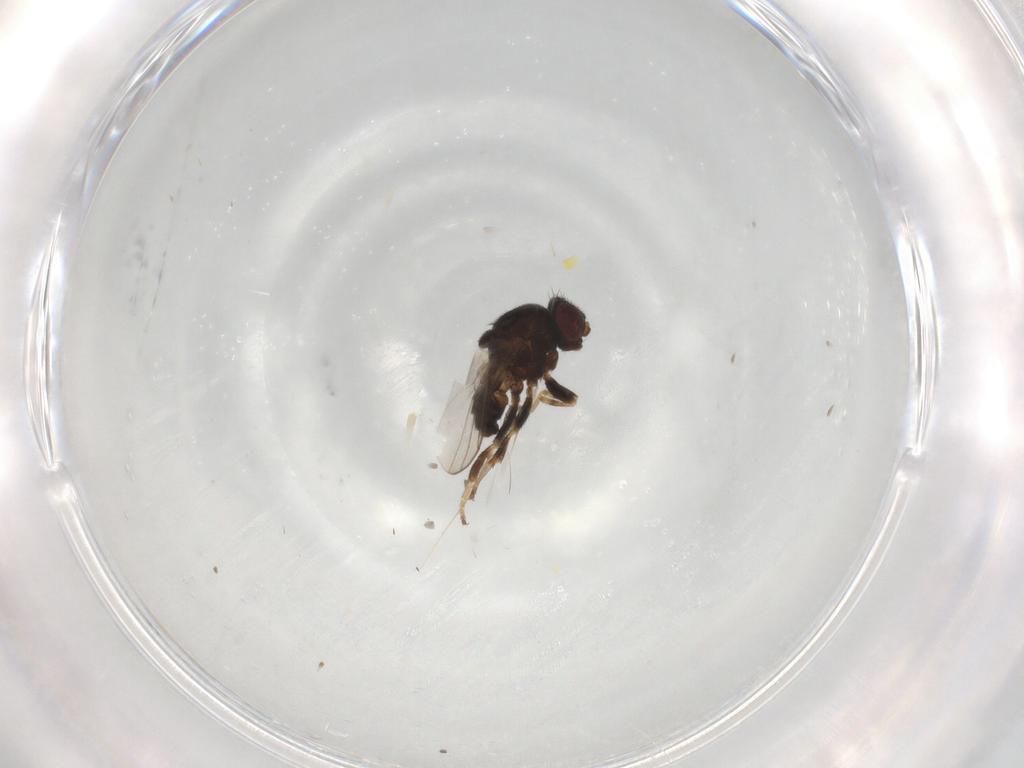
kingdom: Animalia
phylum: Arthropoda
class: Insecta
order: Diptera
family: Chloropidae
